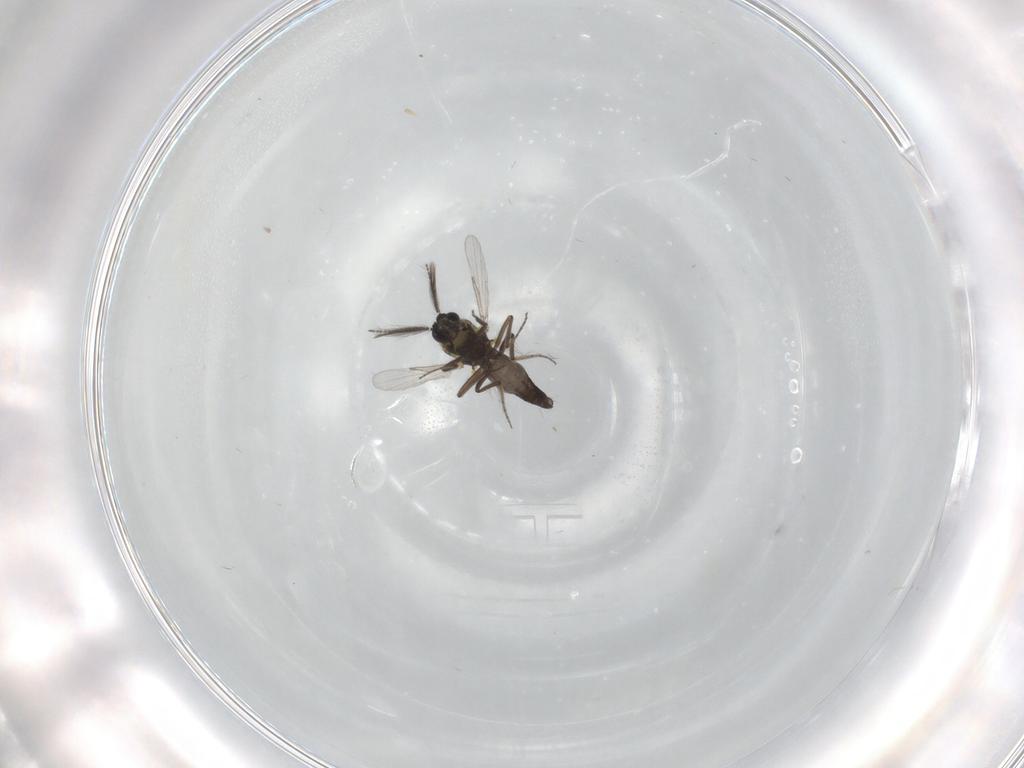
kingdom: Animalia
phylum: Arthropoda
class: Insecta
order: Diptera
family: Ceratopogonidae
